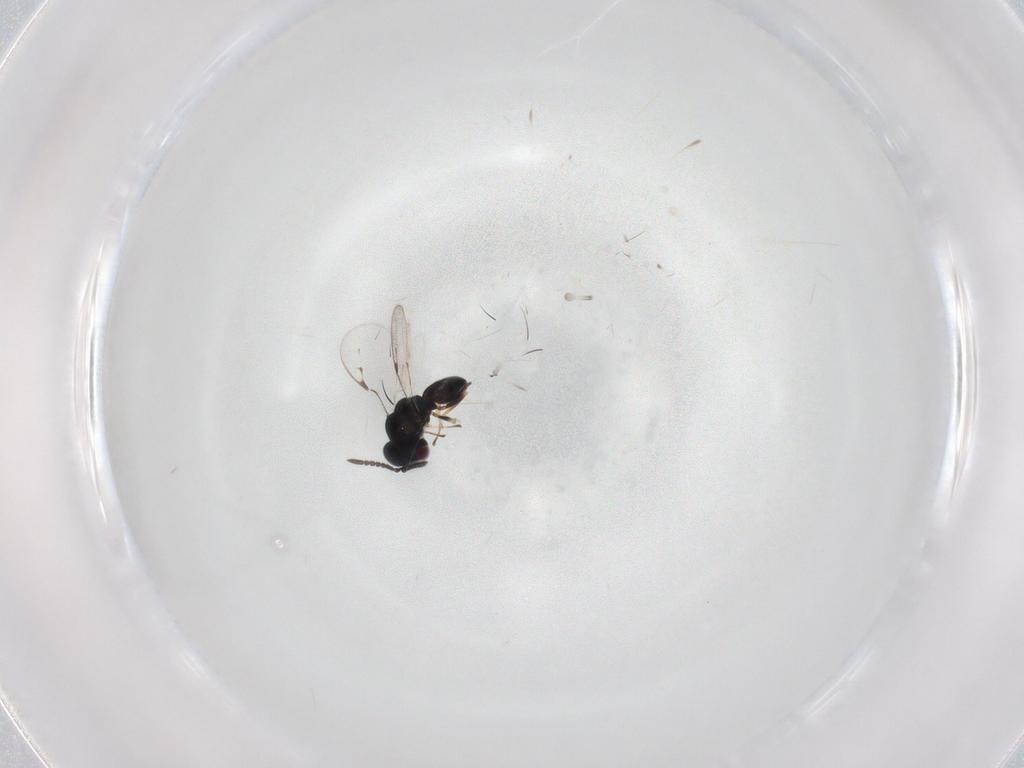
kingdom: Animalia
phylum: Arthropoda
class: Insecta
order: Hymenoptera
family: Pteromalidae
